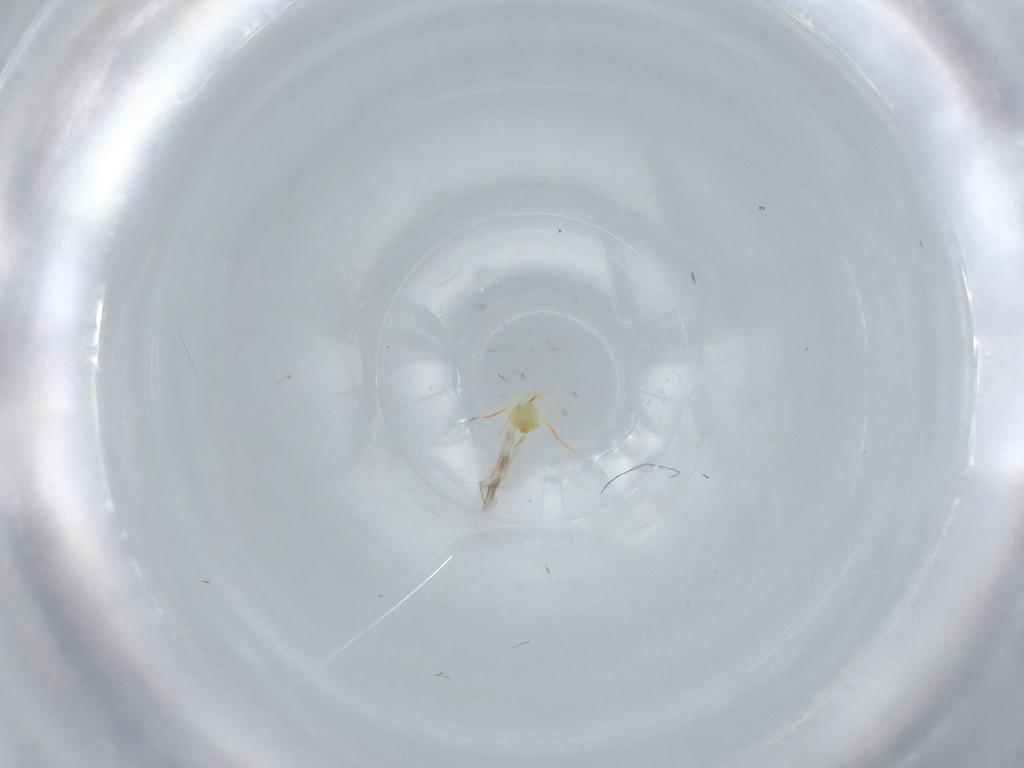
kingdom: Animalia
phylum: Arthropoda
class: Insecta
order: Hemiptera
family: Aleyrodidae
